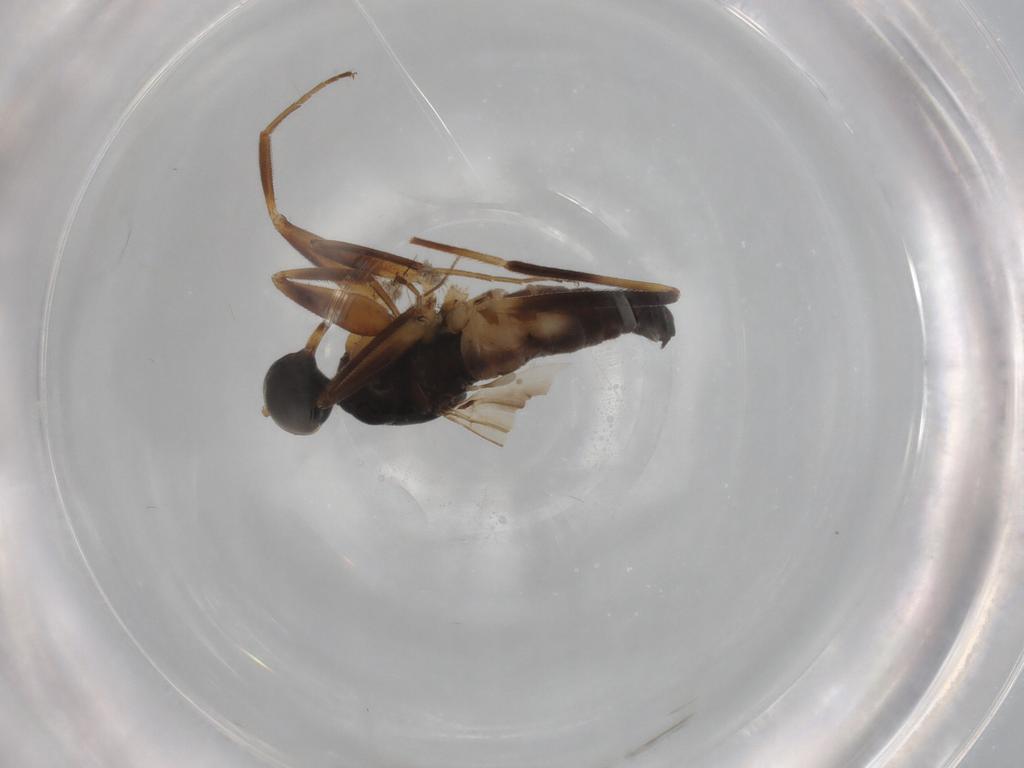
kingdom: Animalia
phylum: Arthropoda
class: Insecta
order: Diptera
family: Hybotidae
